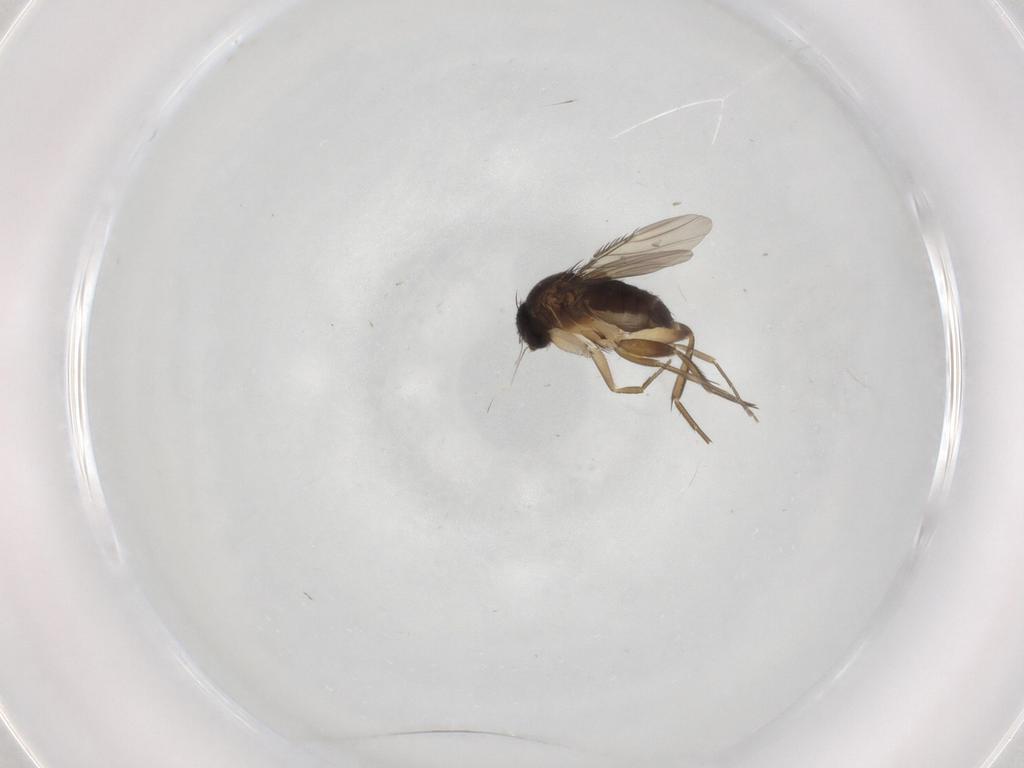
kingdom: Animalia
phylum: Arthropoda
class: Insecta
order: Diptera
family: Phoridae
